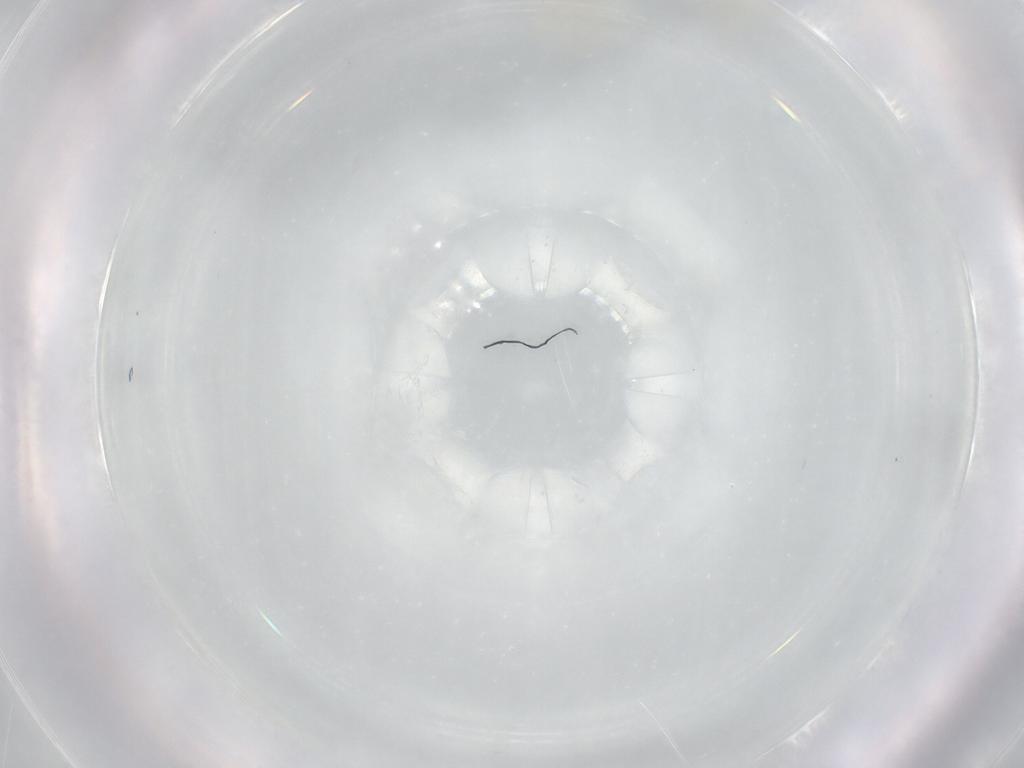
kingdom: Animalia
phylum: Arthropoda
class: Insecta
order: Diptera
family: Chironomidae
